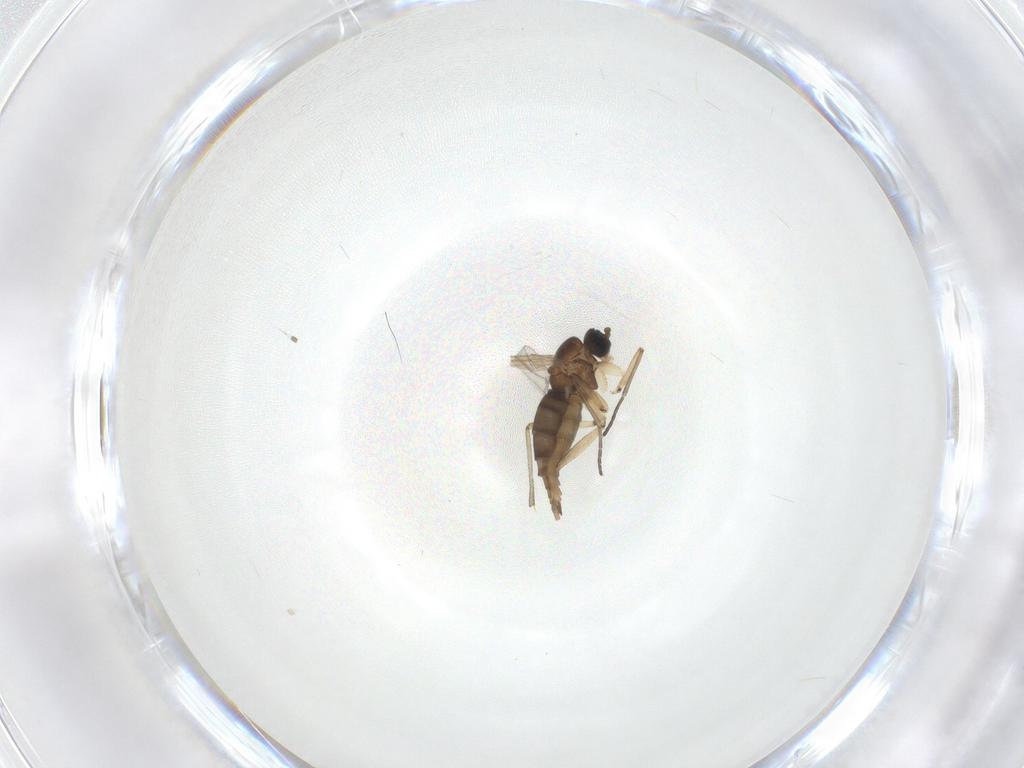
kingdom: Animalia
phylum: Arthropoda
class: Insecta
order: Diptera
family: Sciaridae
